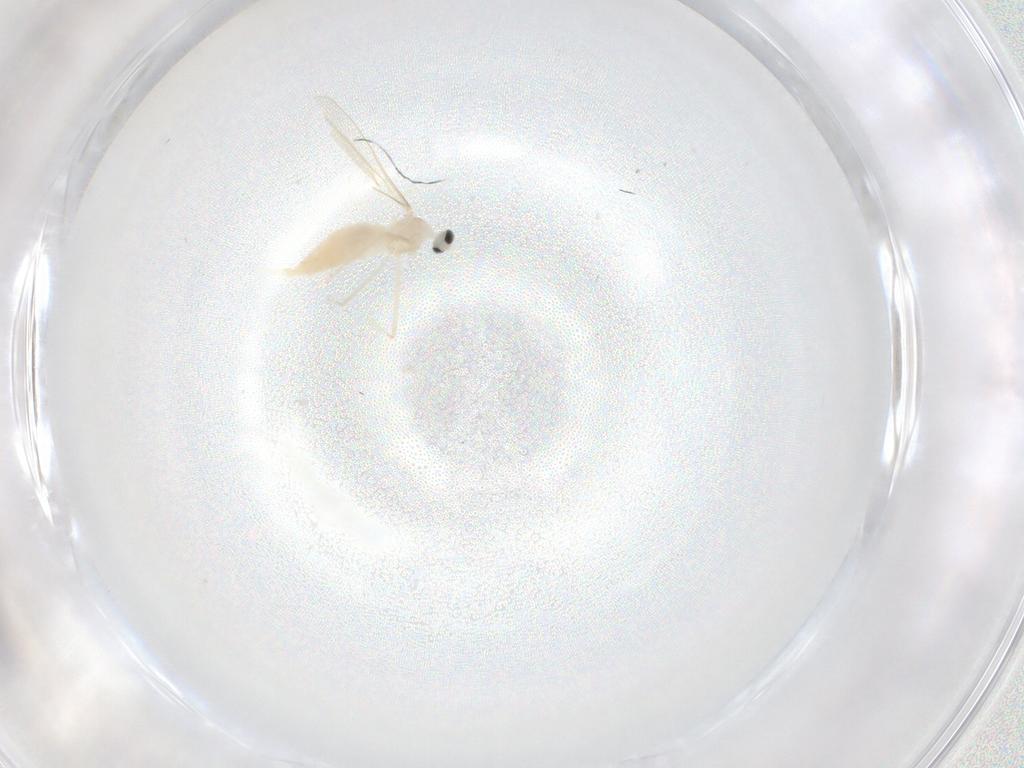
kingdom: Animalia
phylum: Arthropoda
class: Insecta
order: Diptera
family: Cecidomyiidae
